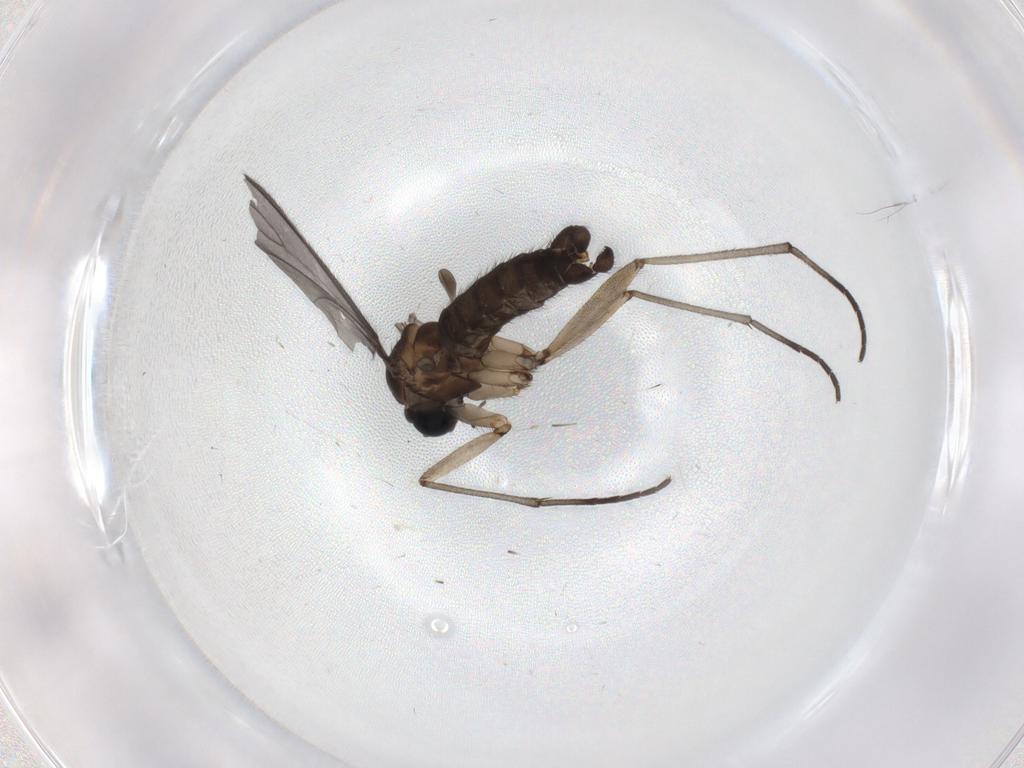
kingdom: Animalia
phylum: Arthropoda
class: Insecta
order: Diptera
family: Sciaridae
